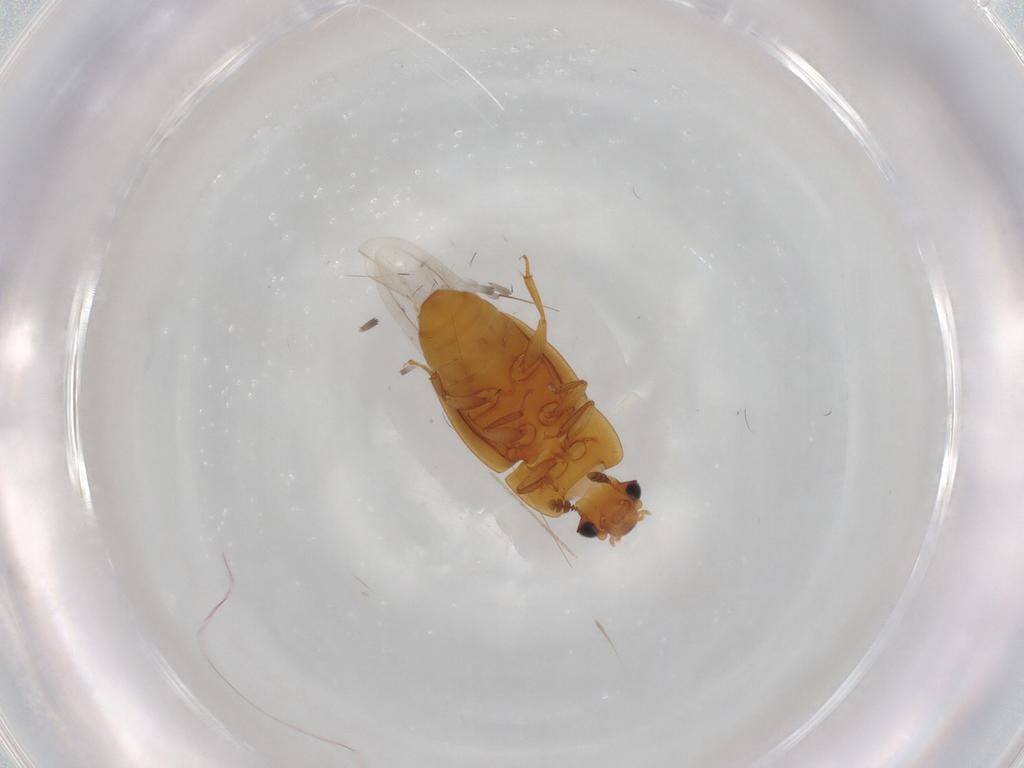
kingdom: Animalia
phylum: Arthropoda
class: Insecta
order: Coleoptera
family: Nitidulidae
